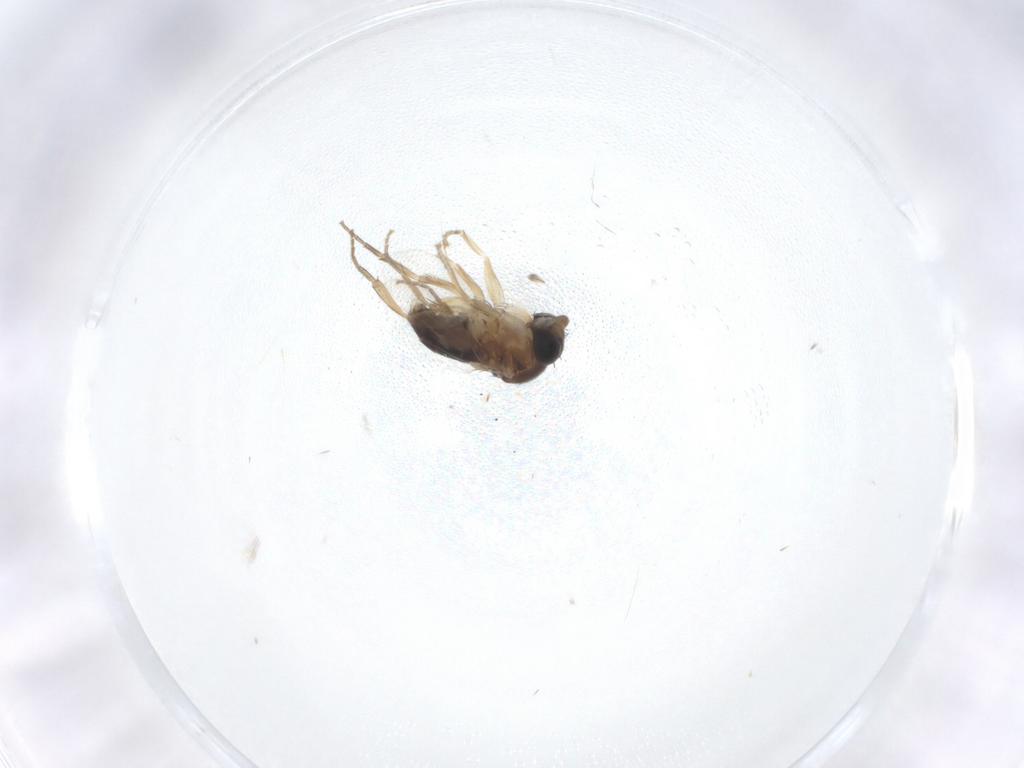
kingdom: Animalia
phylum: Arthropoda
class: Insecta
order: Diptera
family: Phoridae
